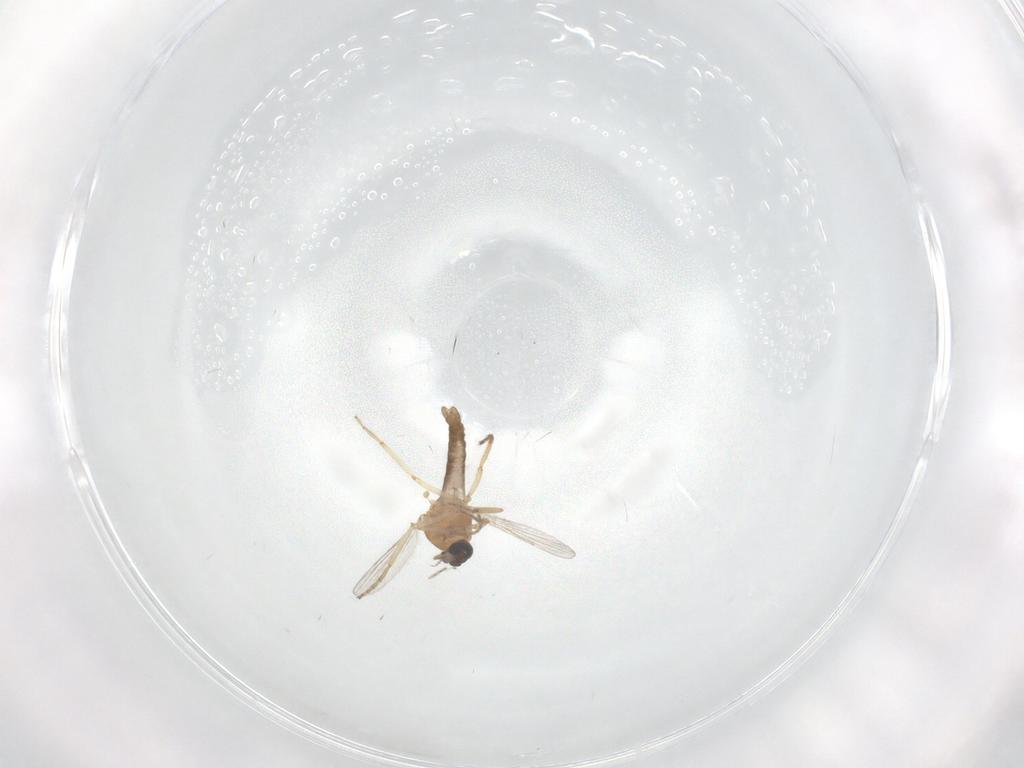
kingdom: Animalia
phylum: Arthropoda
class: Insecta
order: Diptera
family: Ceratopogonidae
